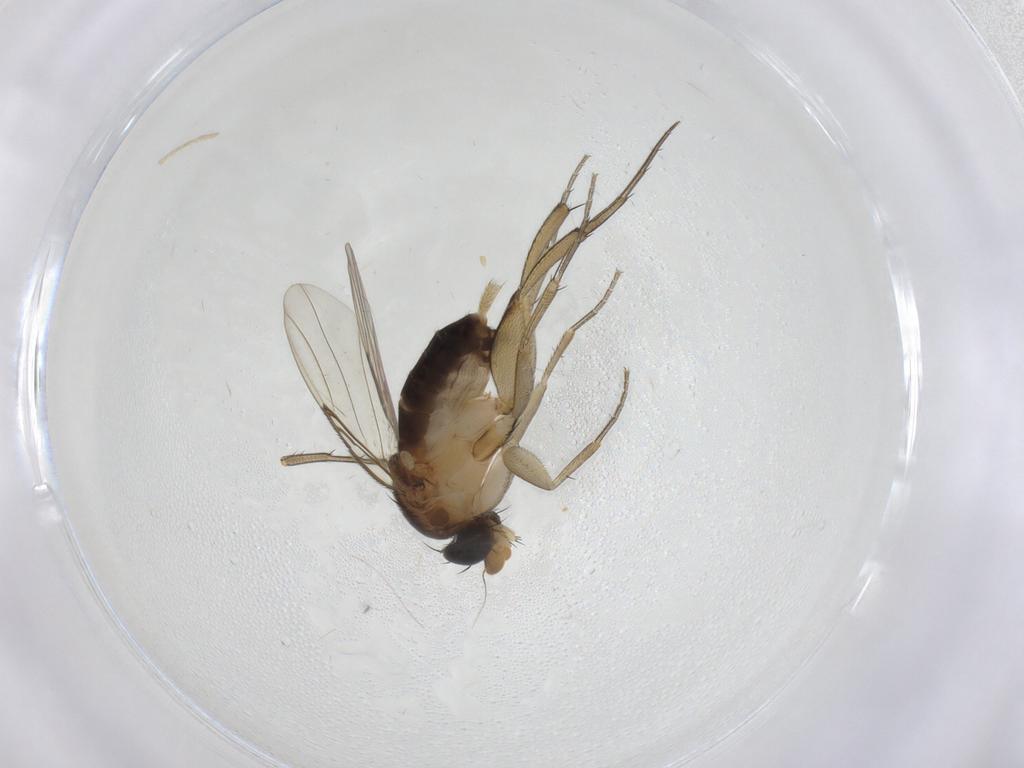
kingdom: Animalia
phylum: Arthropoda
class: Insecta
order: Diptera
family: Phoridae
